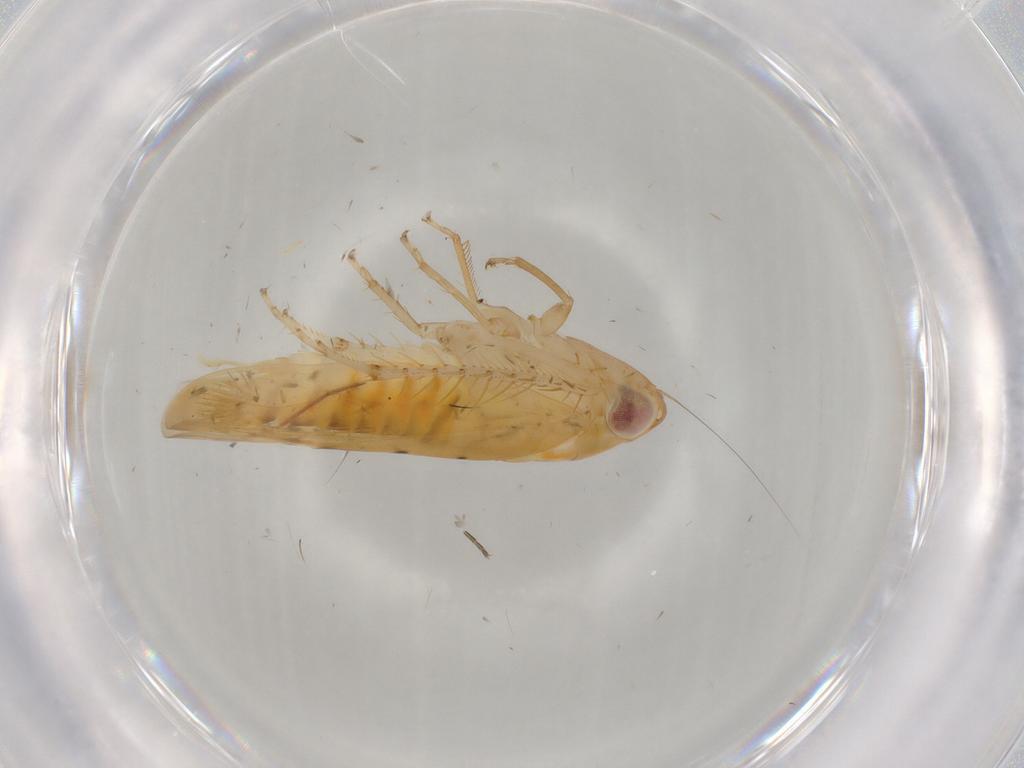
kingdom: Animalia
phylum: Arthropoda
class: Insecta
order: Hemiptera
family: Cicadellidae
